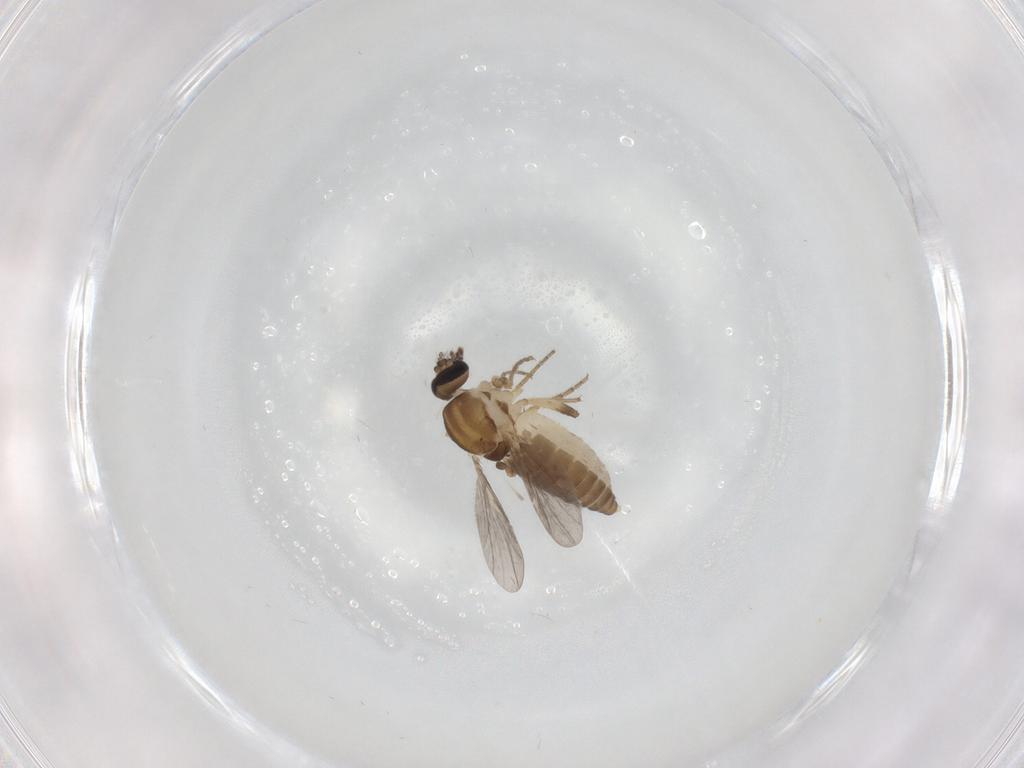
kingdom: Animalia
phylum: Arthropoda
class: Insecta
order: Diptera
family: Ceratopogonidae
